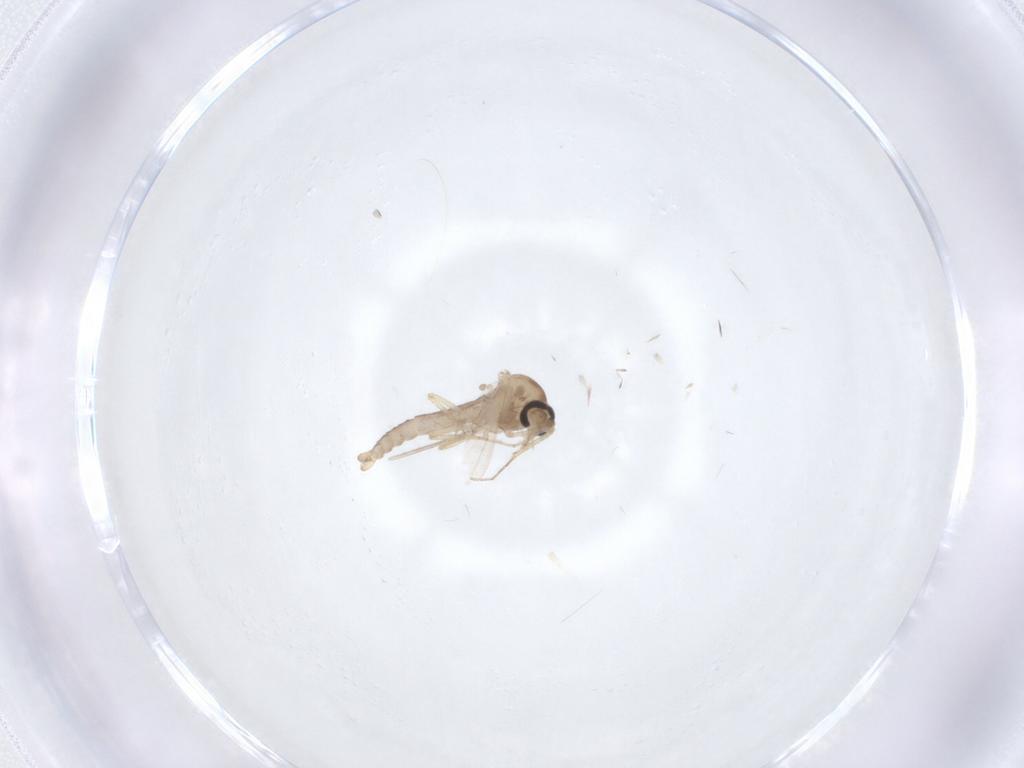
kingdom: Animalia
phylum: Arthropoda
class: Insecta
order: Diptera
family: Ceratopogonidae
